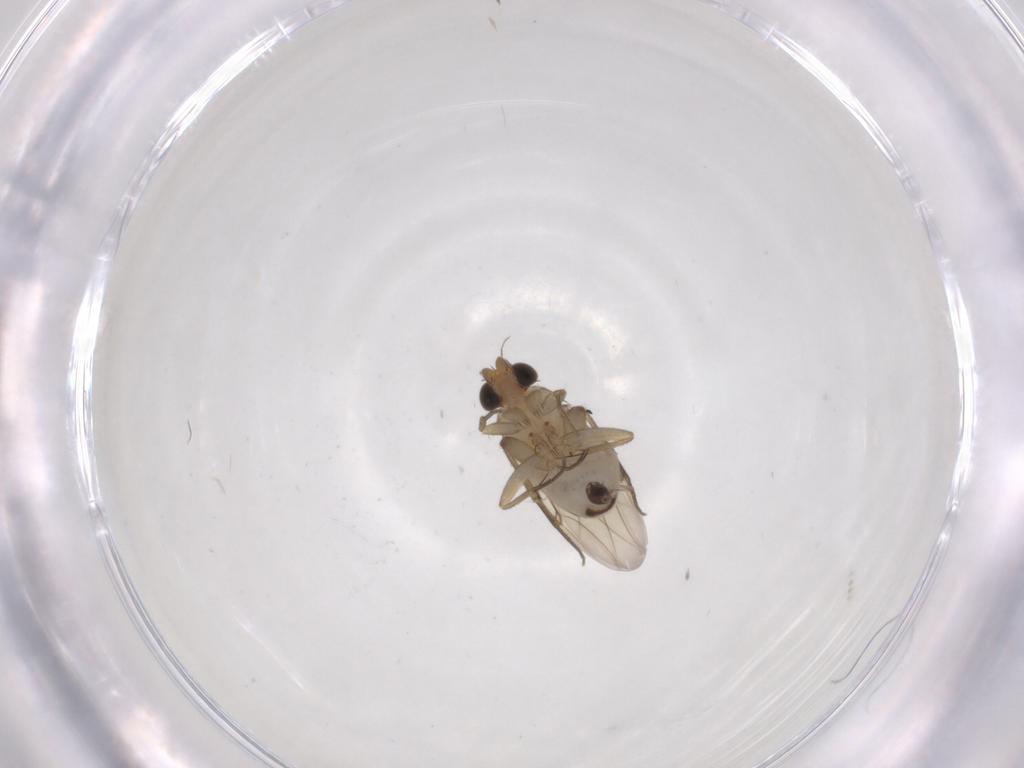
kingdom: Animalia
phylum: Arthropoda
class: Insecta
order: Diptera
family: Phoridae
